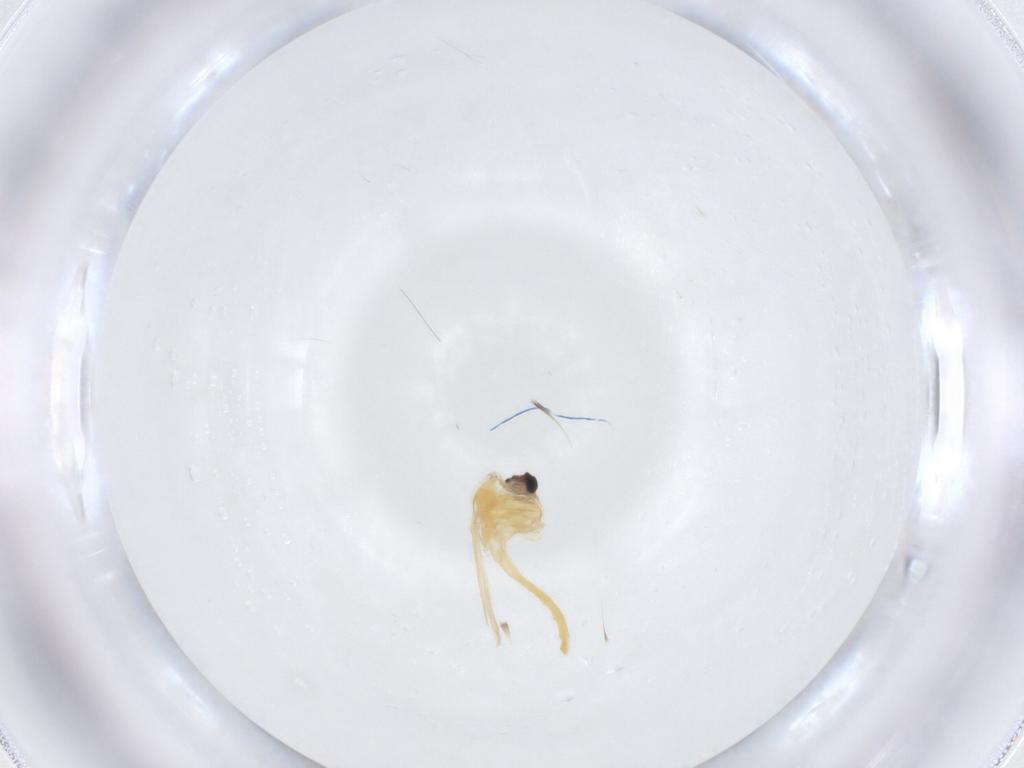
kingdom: Animalia
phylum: Arthropoda
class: Insecta
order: Diptera
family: Chironomidae
